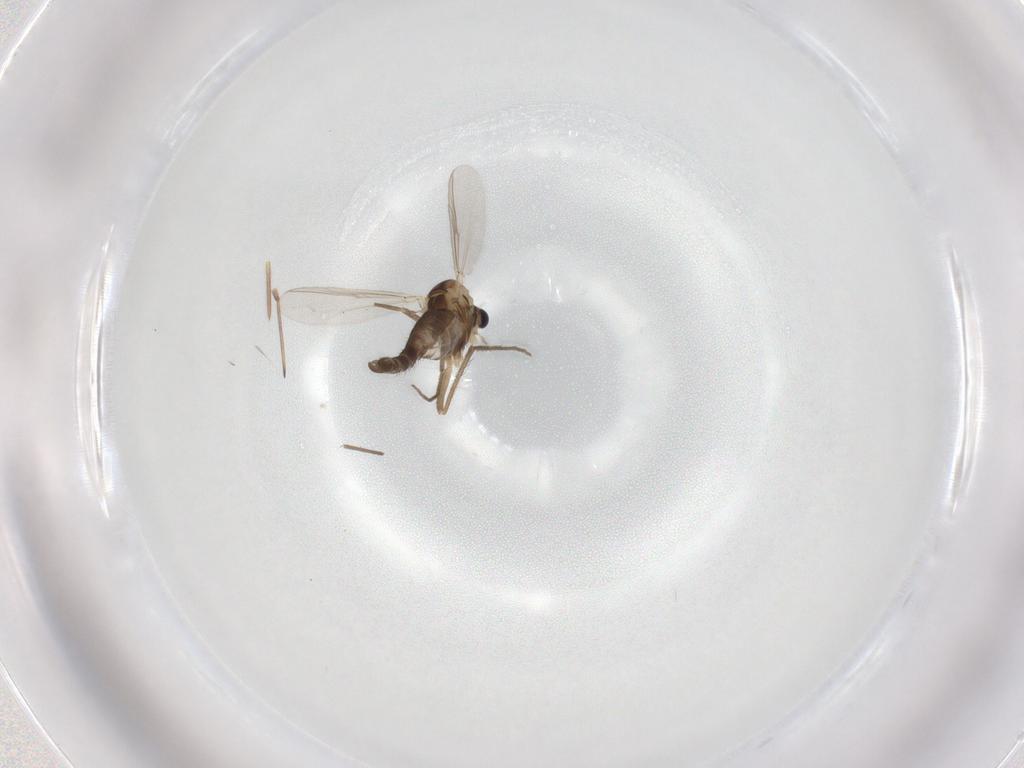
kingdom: Animalia
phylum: Arthropoda
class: Insecta
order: Diptera
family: Chironomidae
